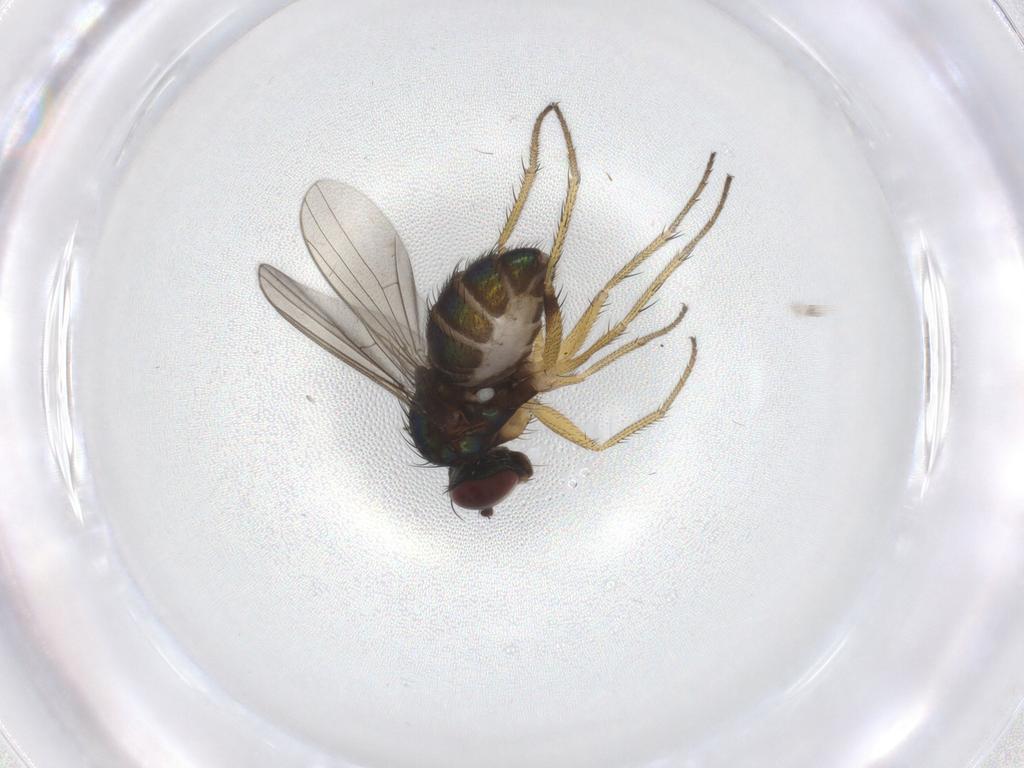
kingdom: Animalia
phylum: Arthropoda
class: Insecta
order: Diptera
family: Dolichopodidae
